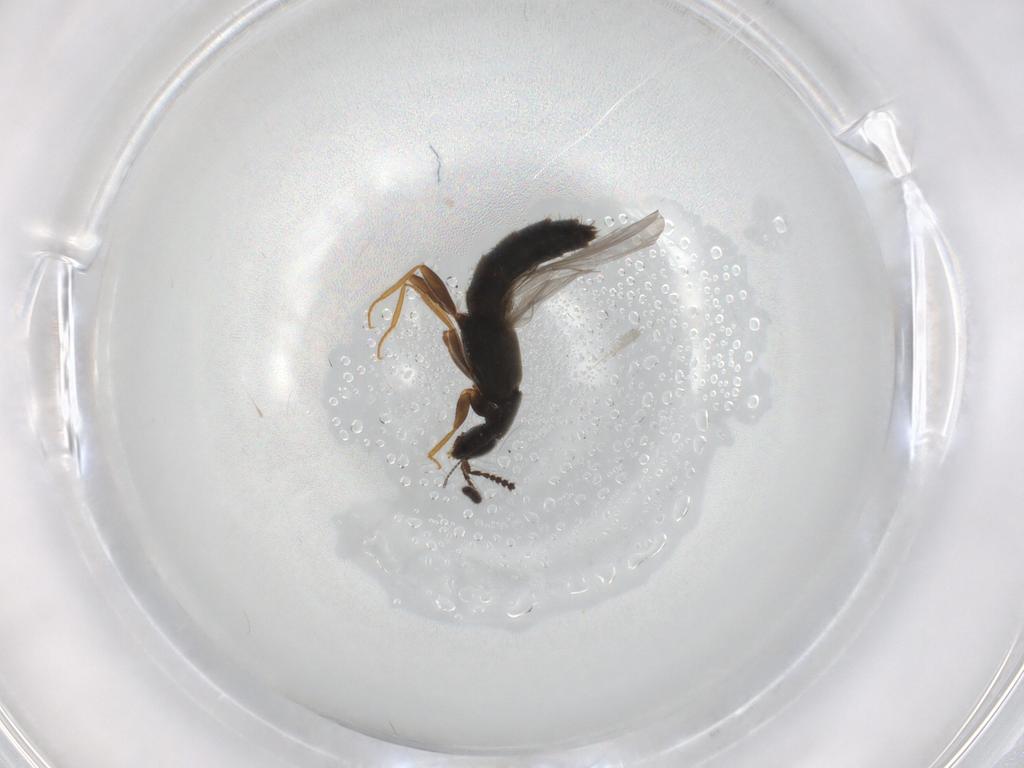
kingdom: Animalia
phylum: Arthropoda
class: Insecta
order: Coleoptera
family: Staphylinidae
